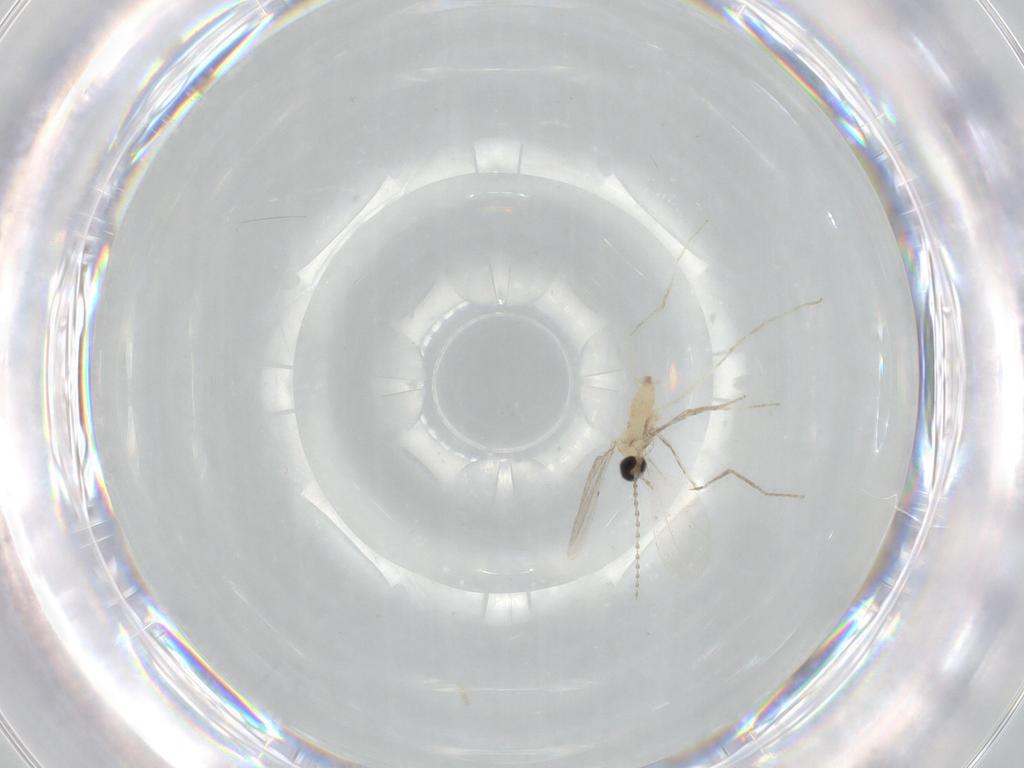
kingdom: Animalia
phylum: Arthropoda
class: Insecta
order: Diptera
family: Cecidomyiidae
